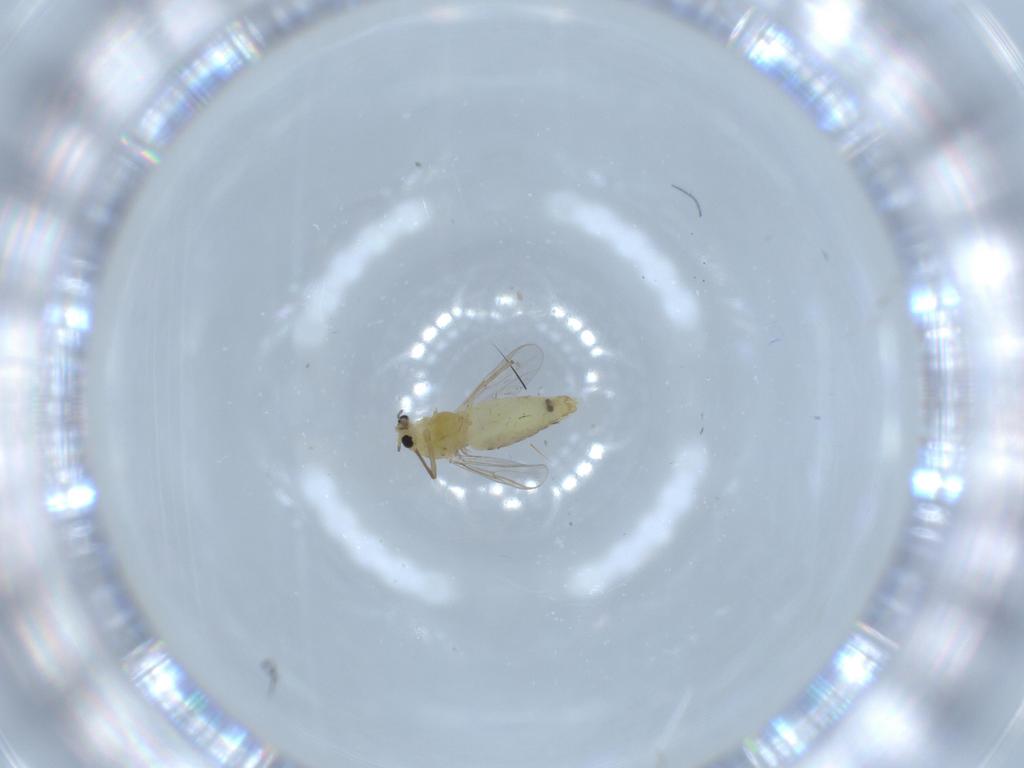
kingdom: Animalia
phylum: Arthropoda
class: Insecta
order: Diptera
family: Chironomidae
